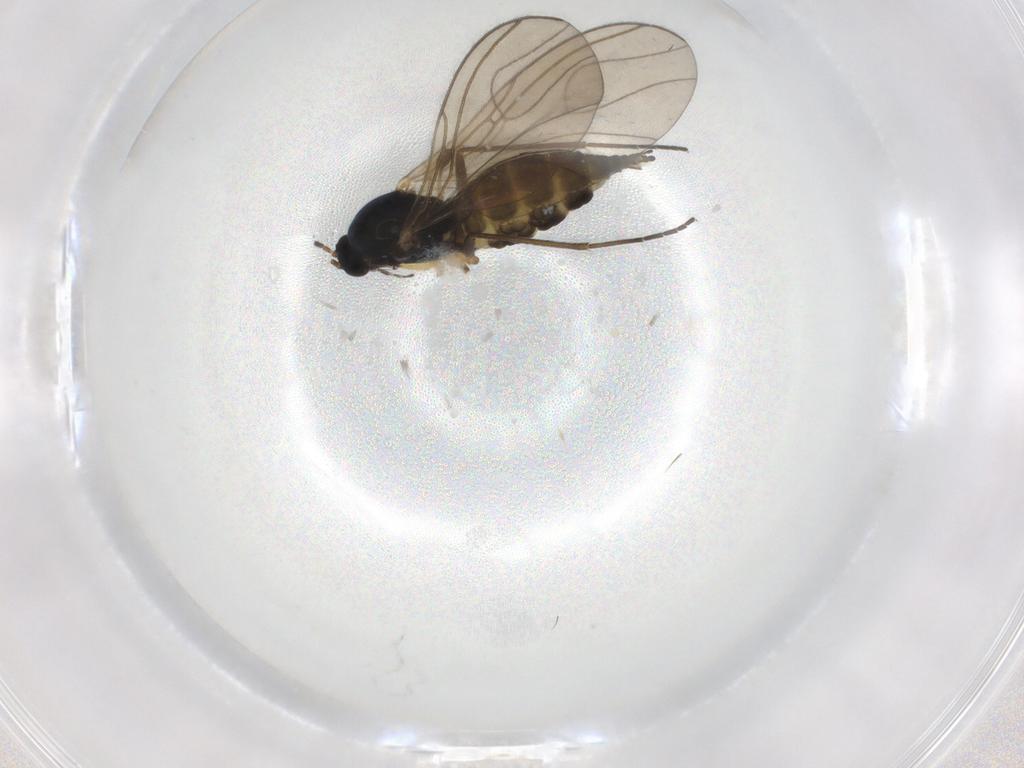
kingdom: Animalia
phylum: Arthropoda
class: Insecta
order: Diptera
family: Sciaridae
